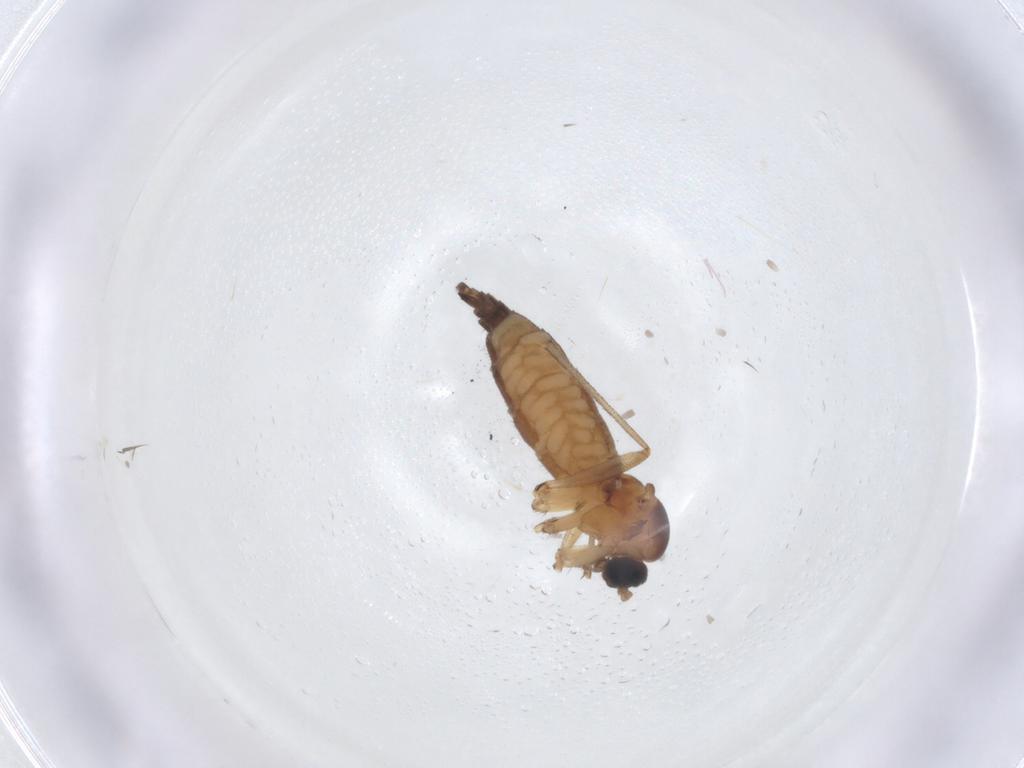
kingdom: Animalia
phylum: Arthropoda
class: Insecta
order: Diptera
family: Sciaridae
